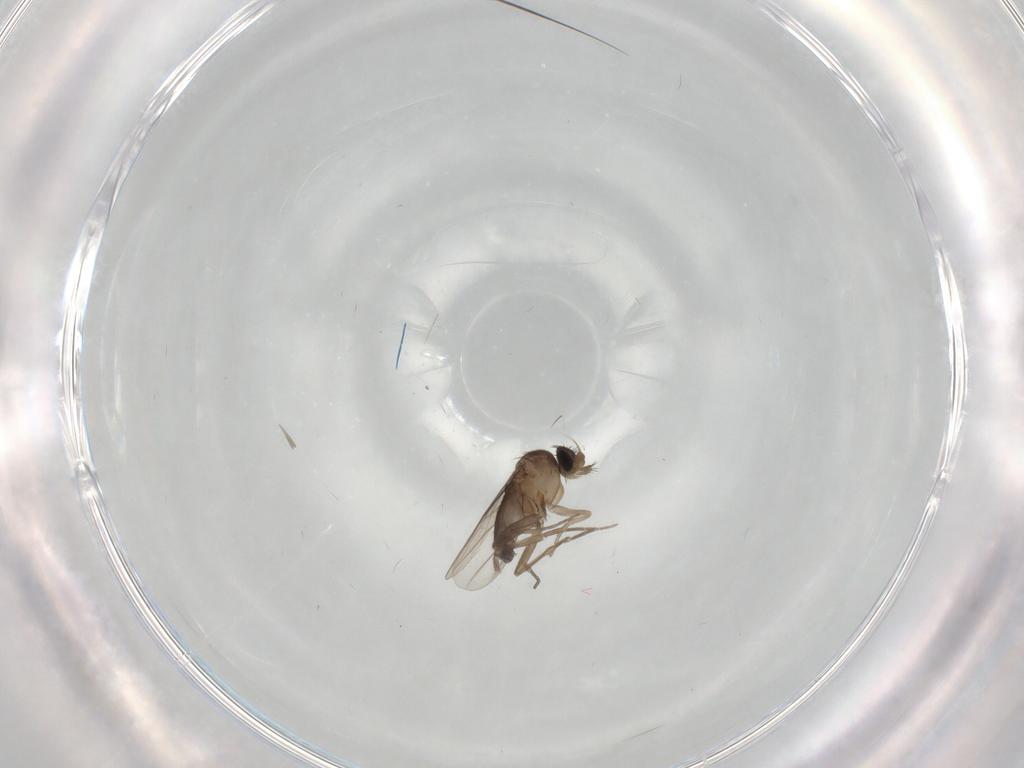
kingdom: Animalia
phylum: Arthropoda
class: Insecta
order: Diptera
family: Phoridae
